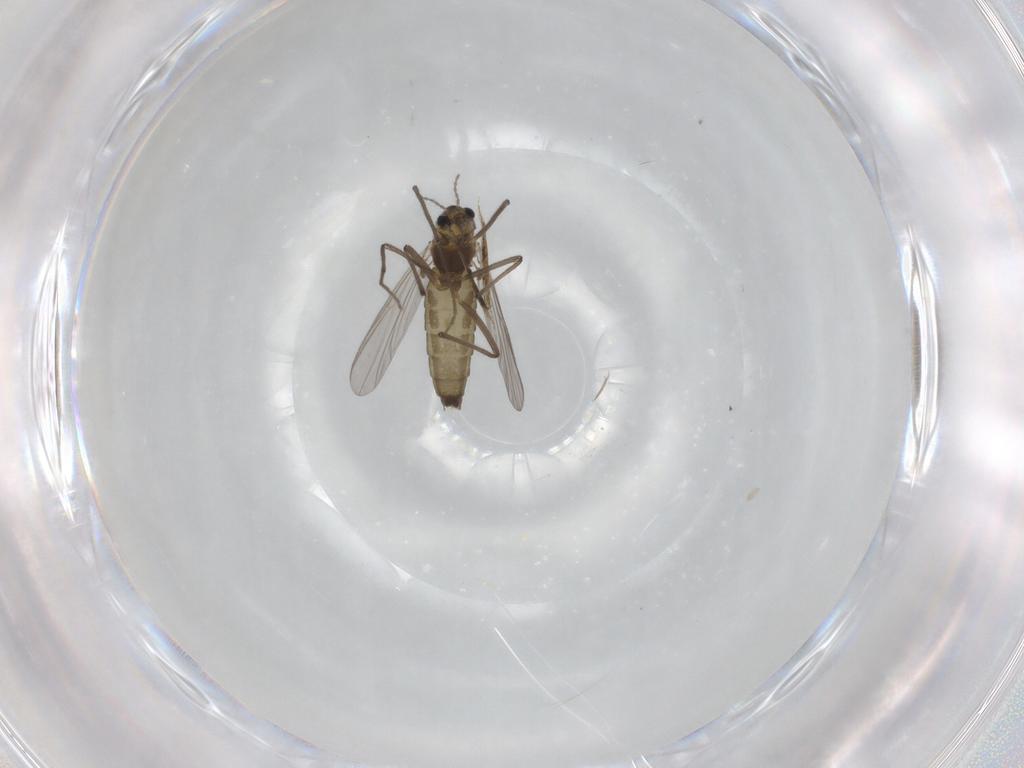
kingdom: Animalia
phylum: Arthropoda
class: Insecta
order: Diptera
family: Chironomidae
